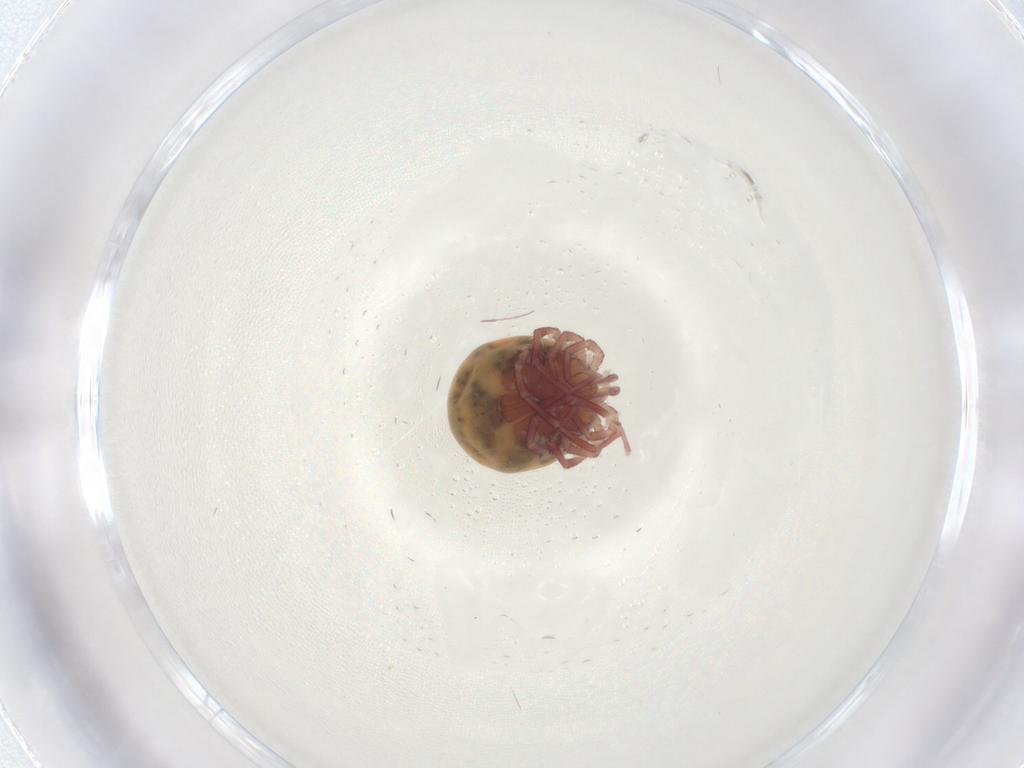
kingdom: Animalia
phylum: Arthropoda
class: Arachnida
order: Trombidiformes
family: Lebertiidae
